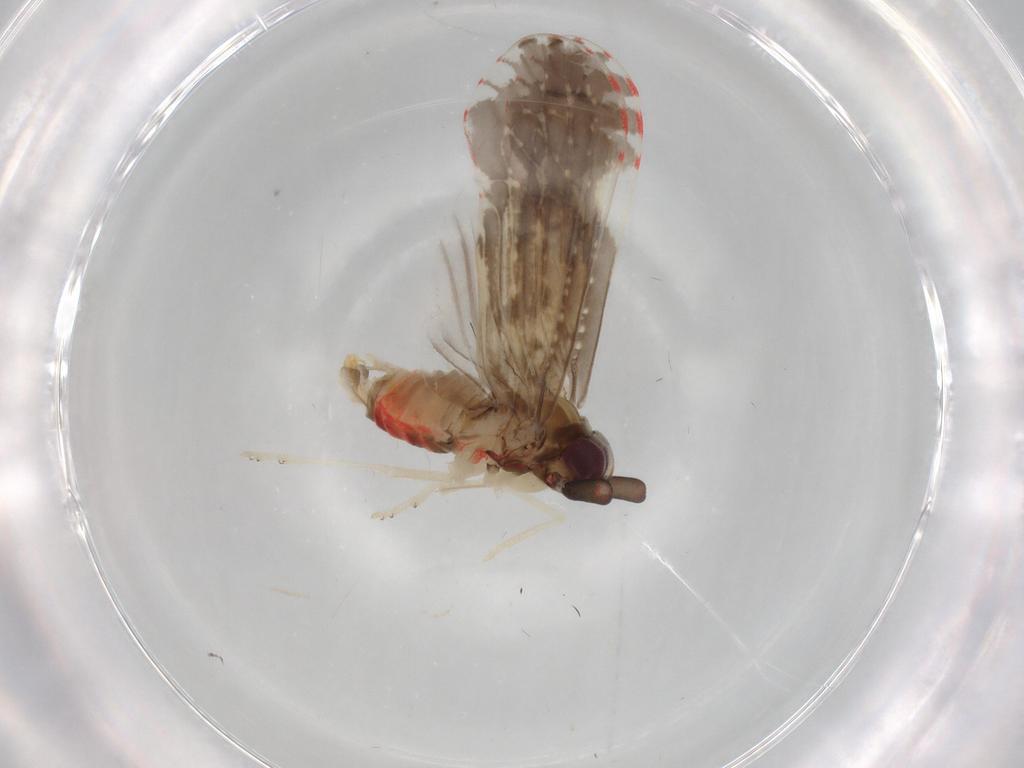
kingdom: Animalia
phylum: Arthropoda
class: Insecta
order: Hemiptera
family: Derbidae
